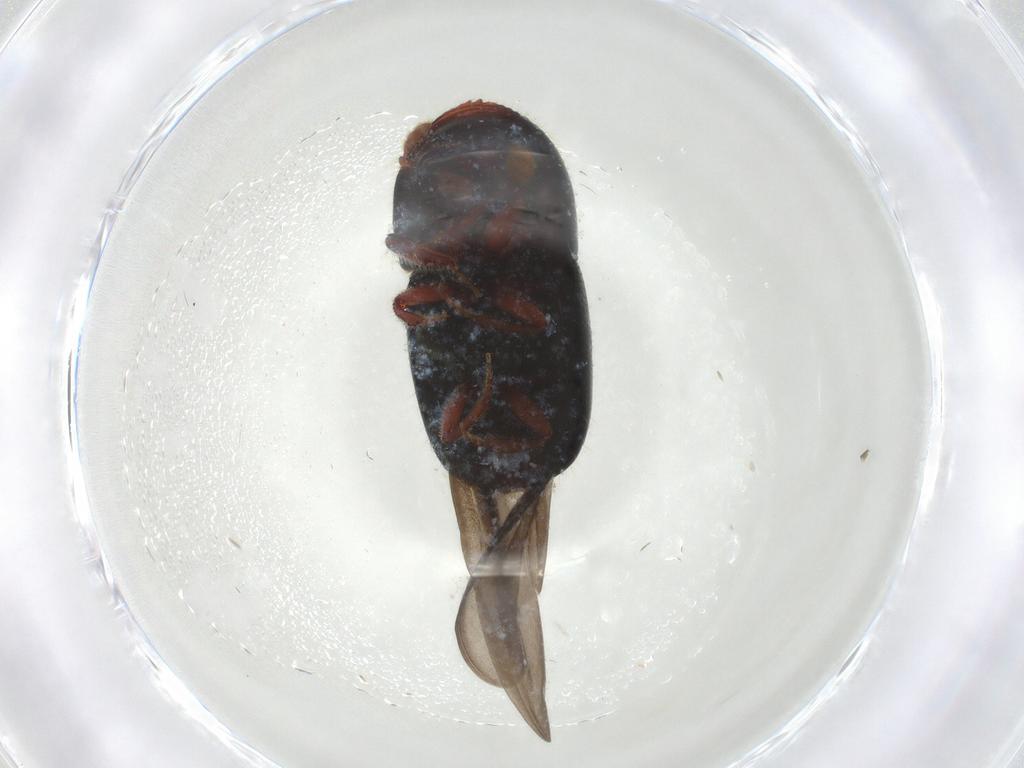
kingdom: Animalia
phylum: Arthropoda
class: Insecta
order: Coleoptera
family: Curculionidae
